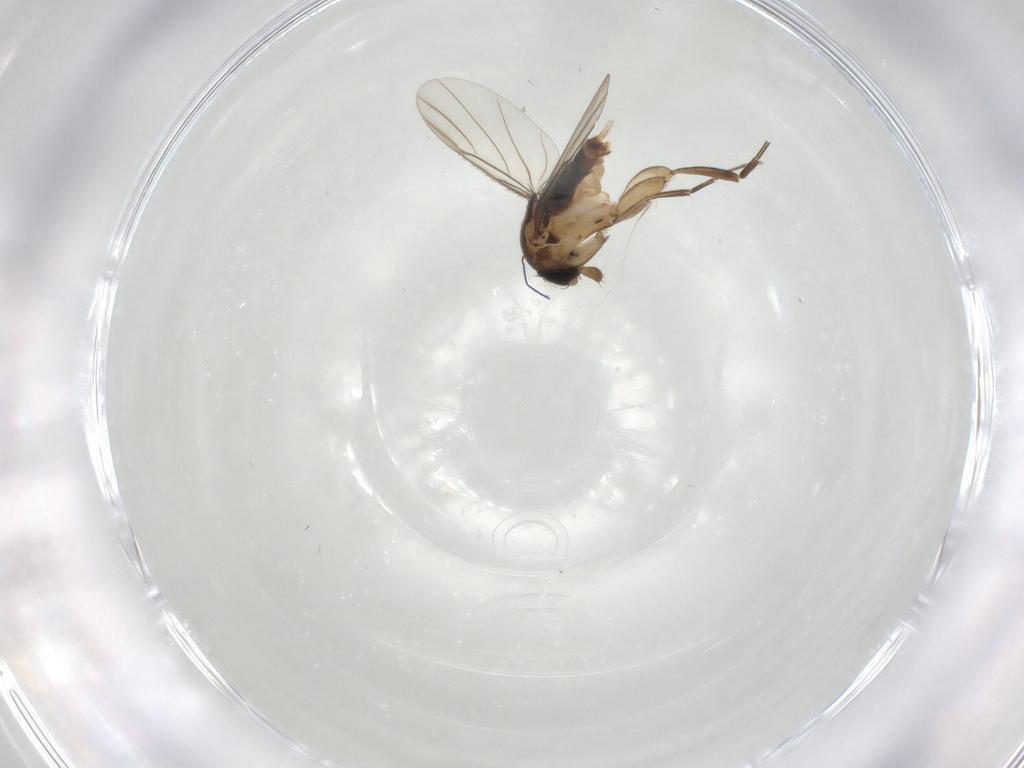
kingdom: Animalia
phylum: Arthropoda
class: Insecta
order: Diptera
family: Phoridae
